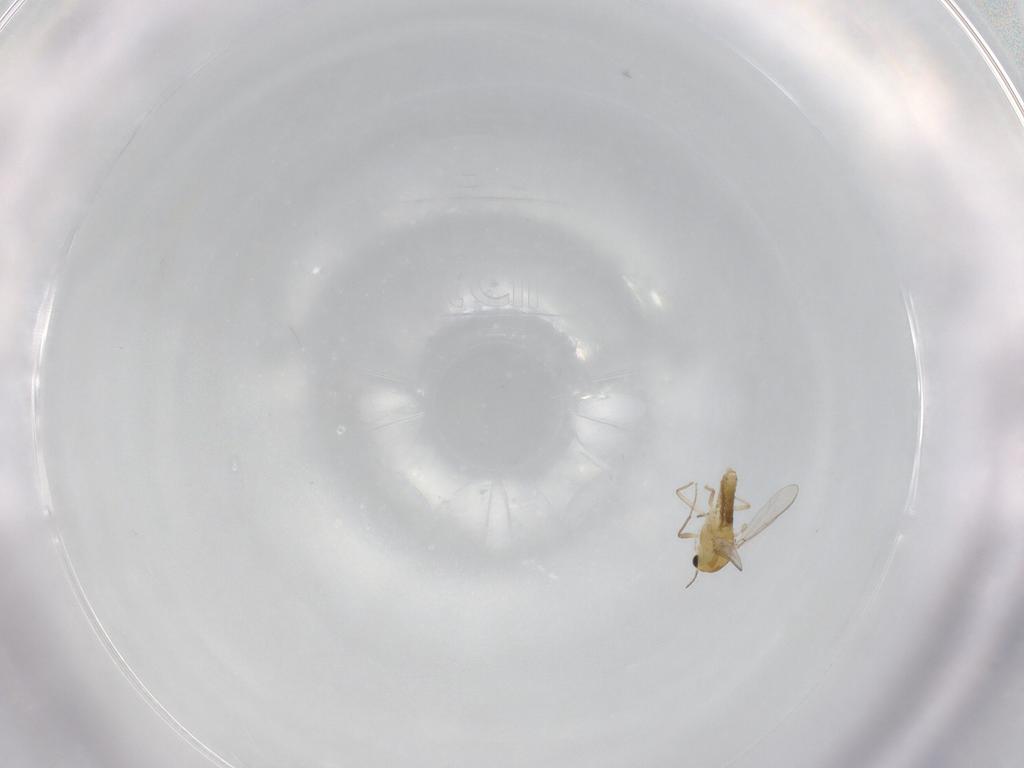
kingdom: Animalia
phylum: Arthropoda
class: Insecta
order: Diptera
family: Chironomidae
